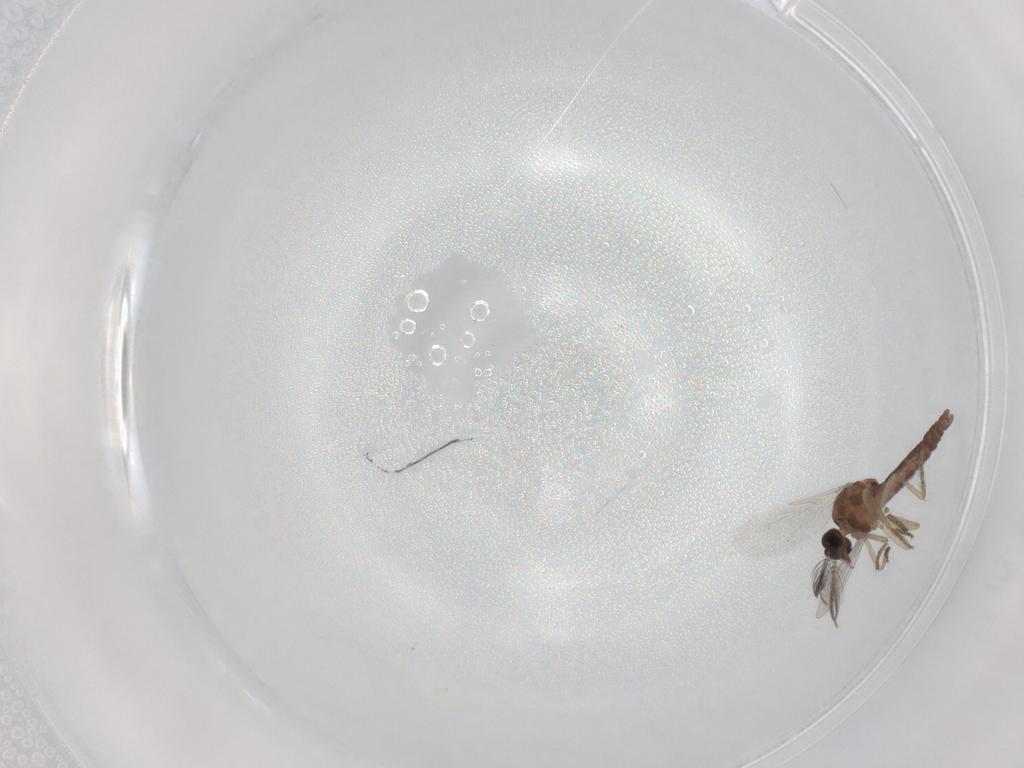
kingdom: Animalia
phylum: Arthropoda
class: Insecta
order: Diptera
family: Ceratopogonidae
